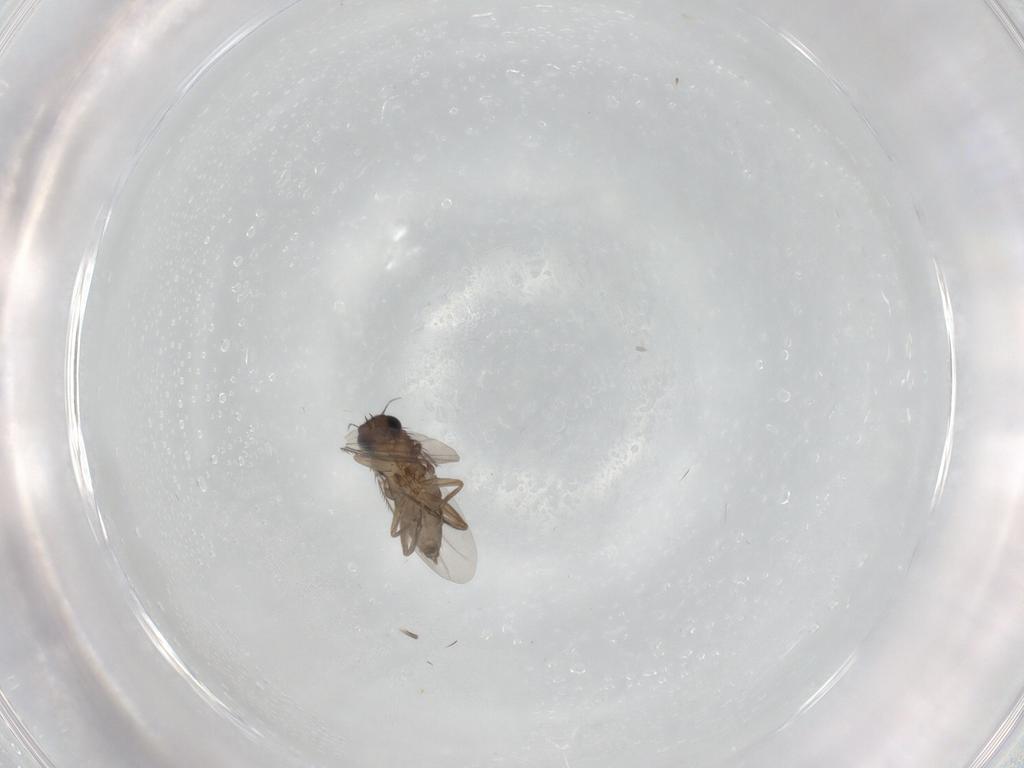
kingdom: Animalia
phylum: Arthropoda
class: Insecta
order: Diptera
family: Phoridae
